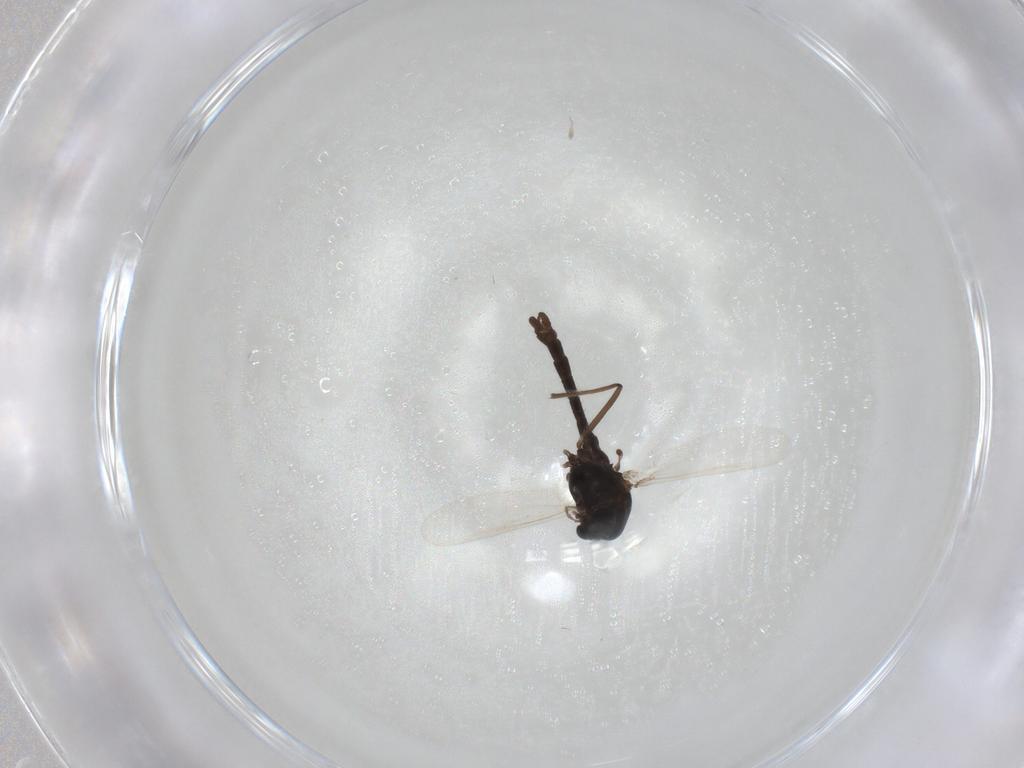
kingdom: Animalia
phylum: Arthropoda
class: Insecta
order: Diptera
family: Chironomidae
